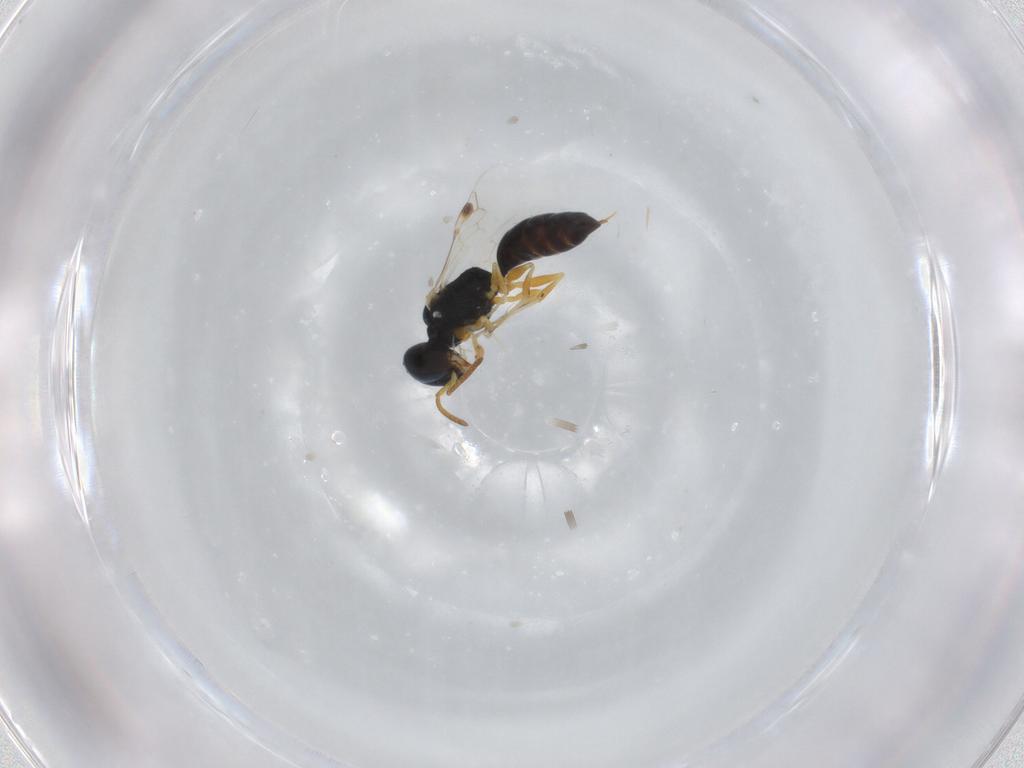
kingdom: Animalia
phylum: Arthropoda
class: Insecta
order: Hymenoptera
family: Pemphredonidae
